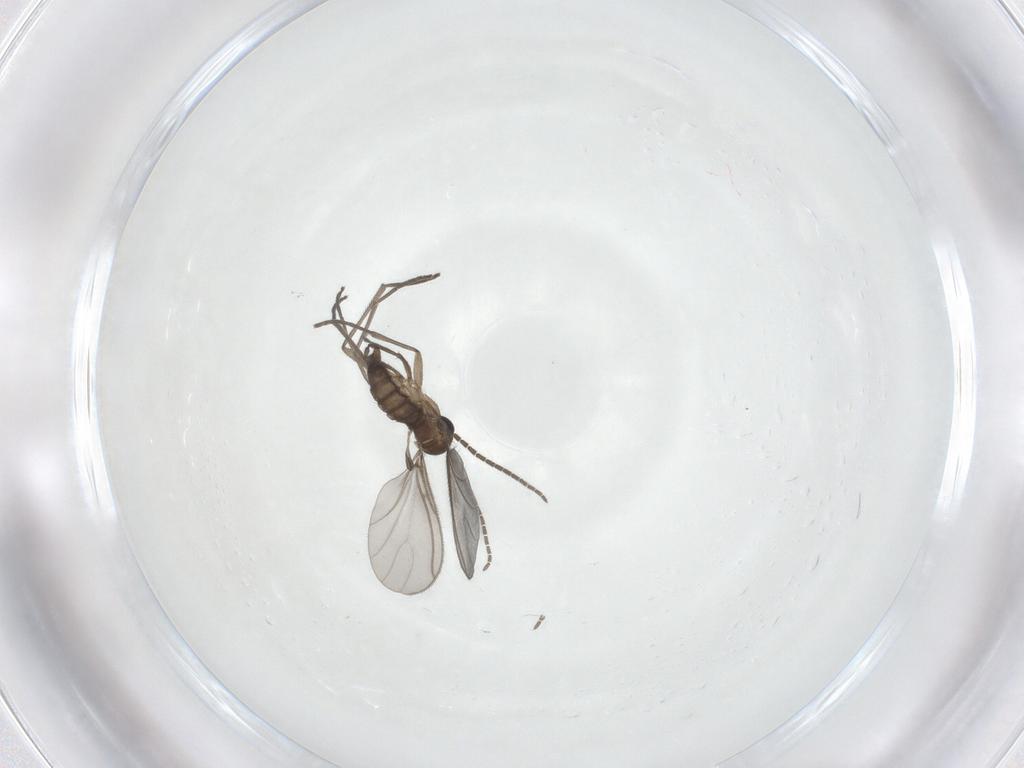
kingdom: Animalia
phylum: Arthropoda
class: Insecta
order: Diptera
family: Sciaridae
